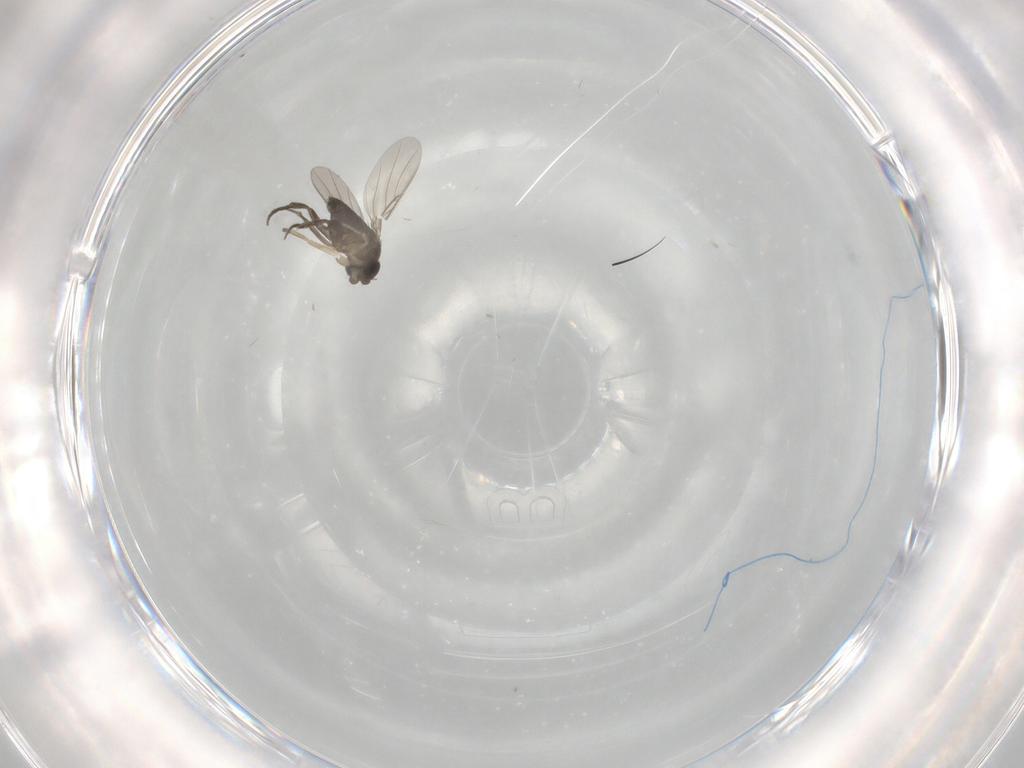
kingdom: Animalia
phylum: Arthropoda
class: Insecta
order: Diptera
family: Phoridae
